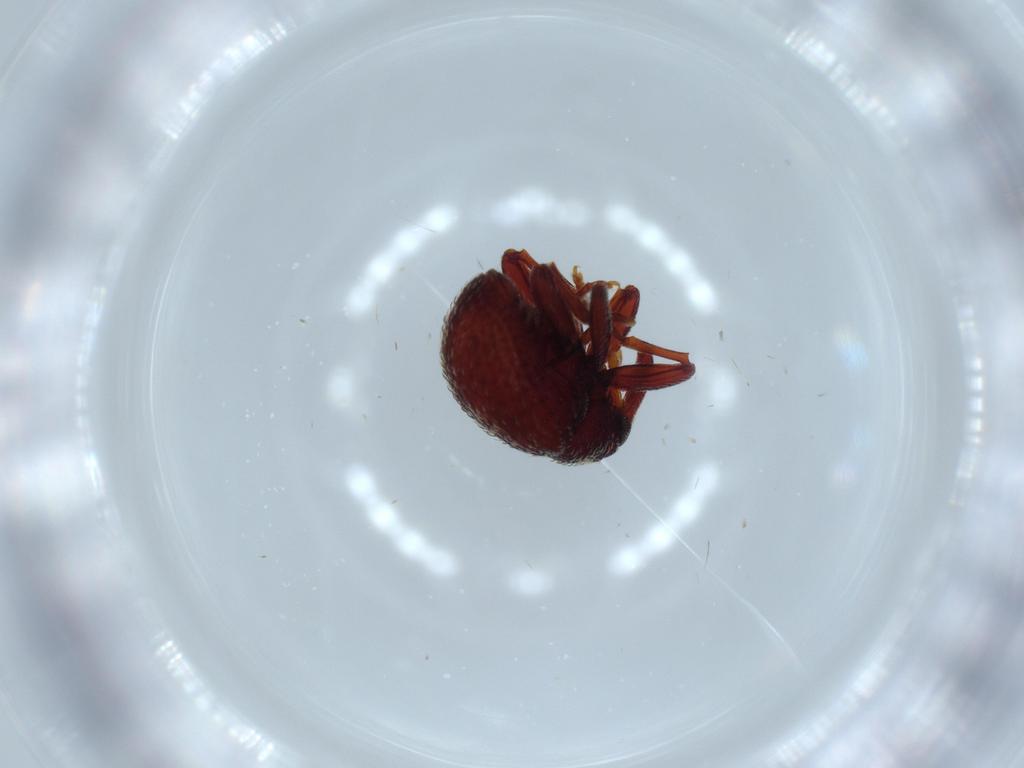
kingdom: Animalia
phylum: Arthropoda
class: Insecta
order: Coleoptera
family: Curculionidae
